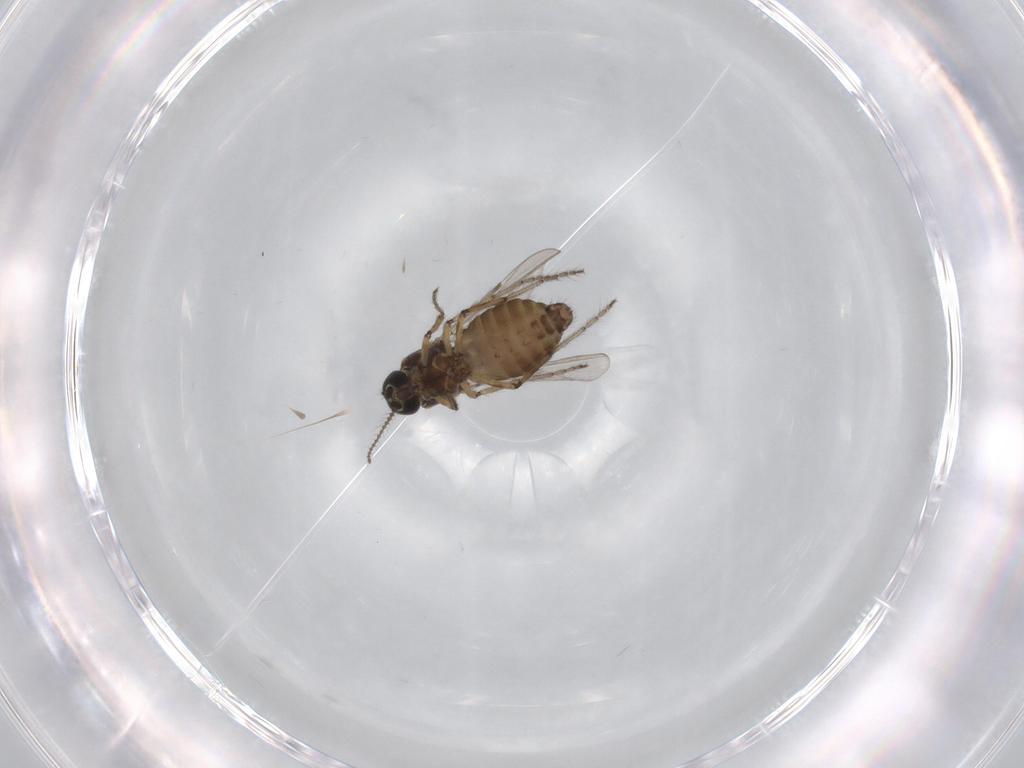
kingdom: Animalia
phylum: Arthropoda
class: Insecta
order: Diptera
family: Chironomidae
